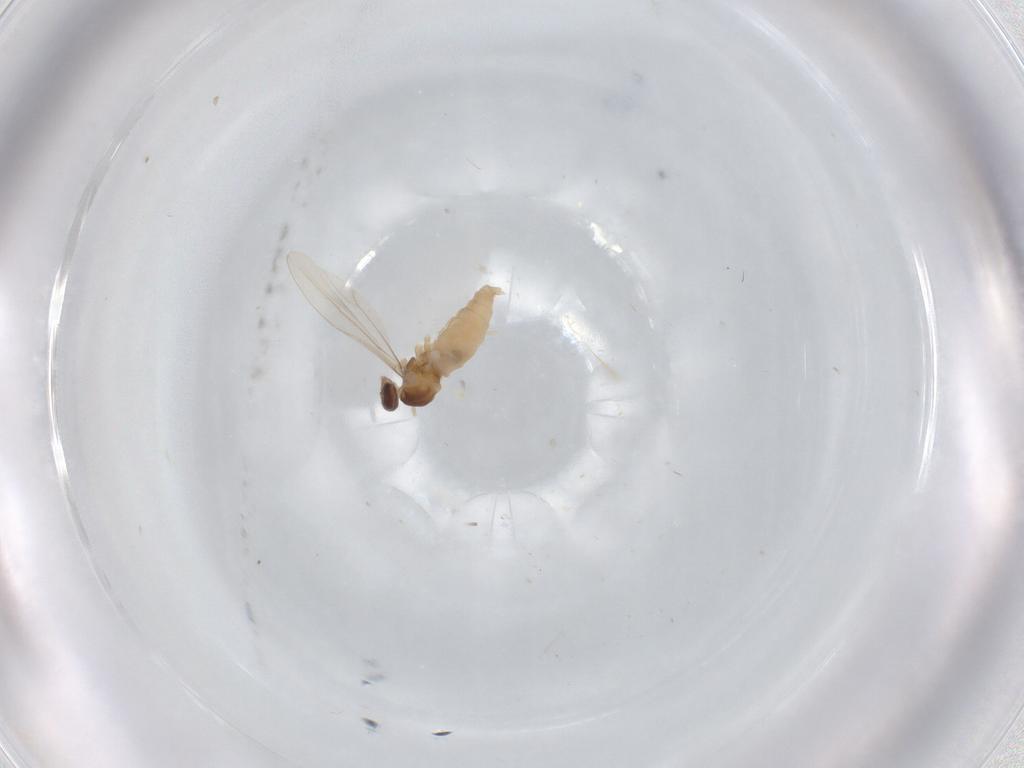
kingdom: Animalia
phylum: Arthropoda
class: Insecta
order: Diptera
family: Cecidomyiidae
